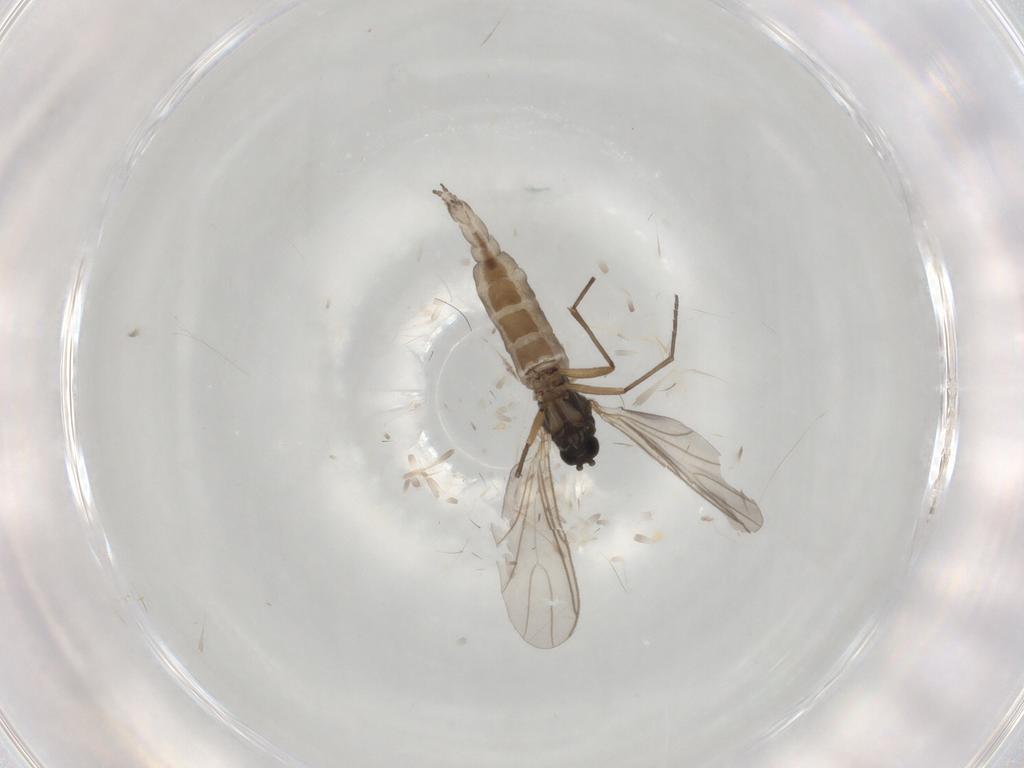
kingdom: Animalia
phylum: Arthropoda
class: Insecta
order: Diptera
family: Sciaridae
